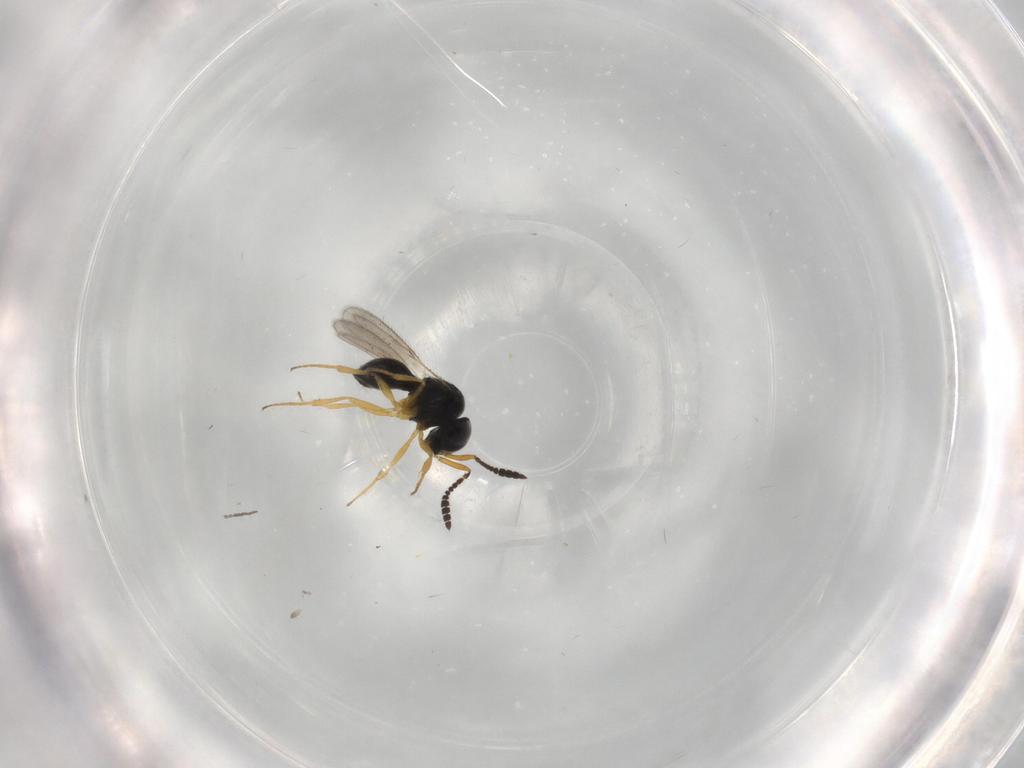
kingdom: Animalia
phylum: Arthropoda
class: Insecta
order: Hymenoptera
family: Scelionidae
